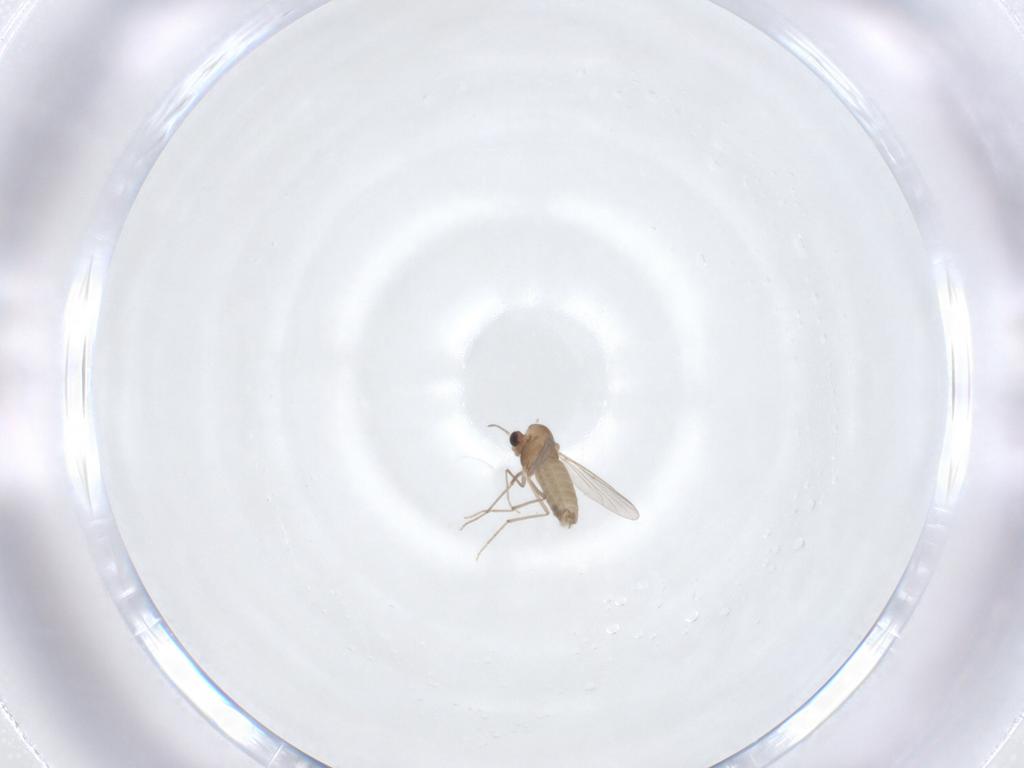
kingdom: Animalia
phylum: Arthropoda
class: Insecta
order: Diptera
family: Chironomidae
